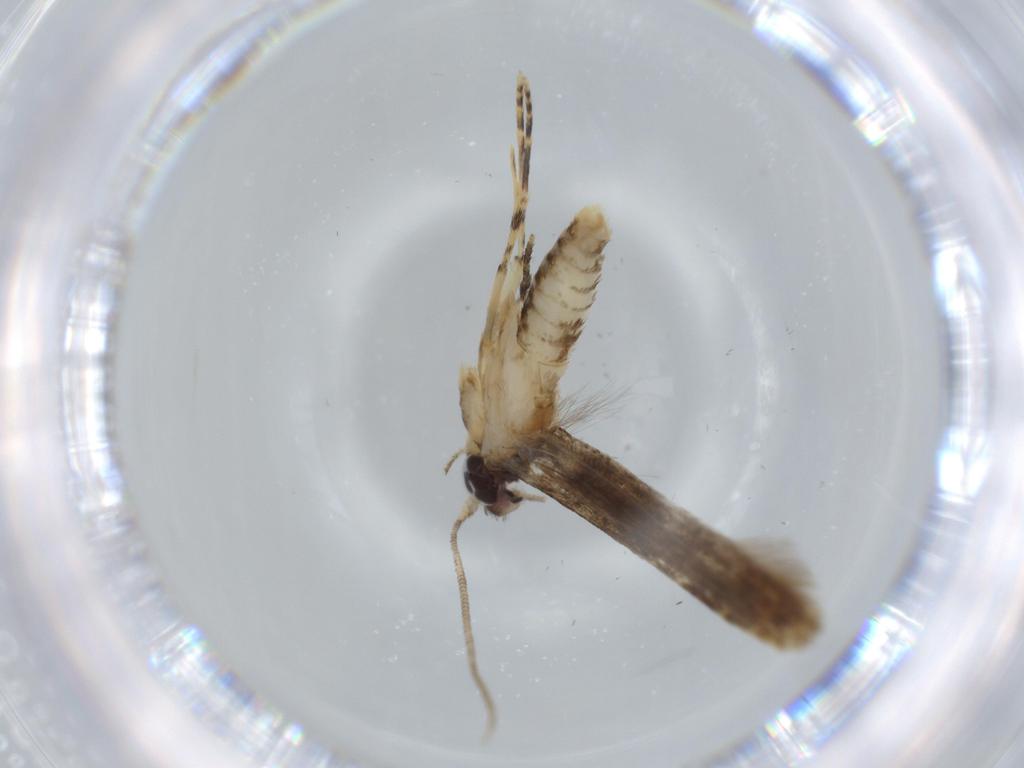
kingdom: Animalia
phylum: Arthropoda
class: Insecta
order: Lepidoptera
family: Tineidae
